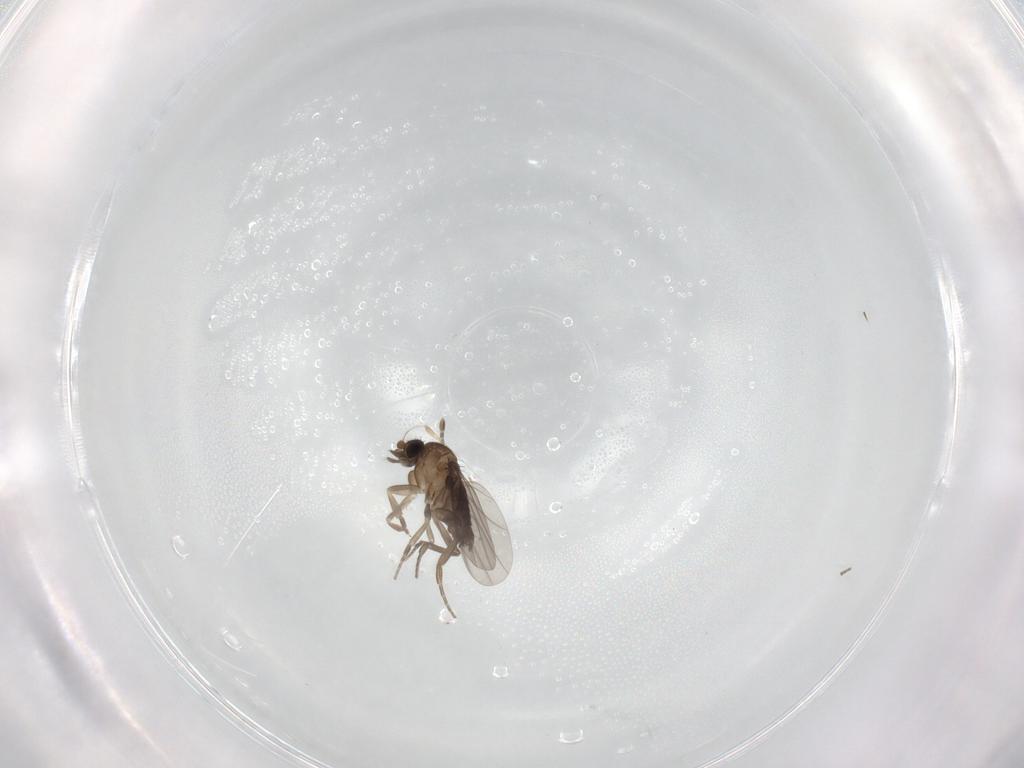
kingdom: Animalia
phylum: Arthropoda
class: Insecta
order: Diptera
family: Phoridae
